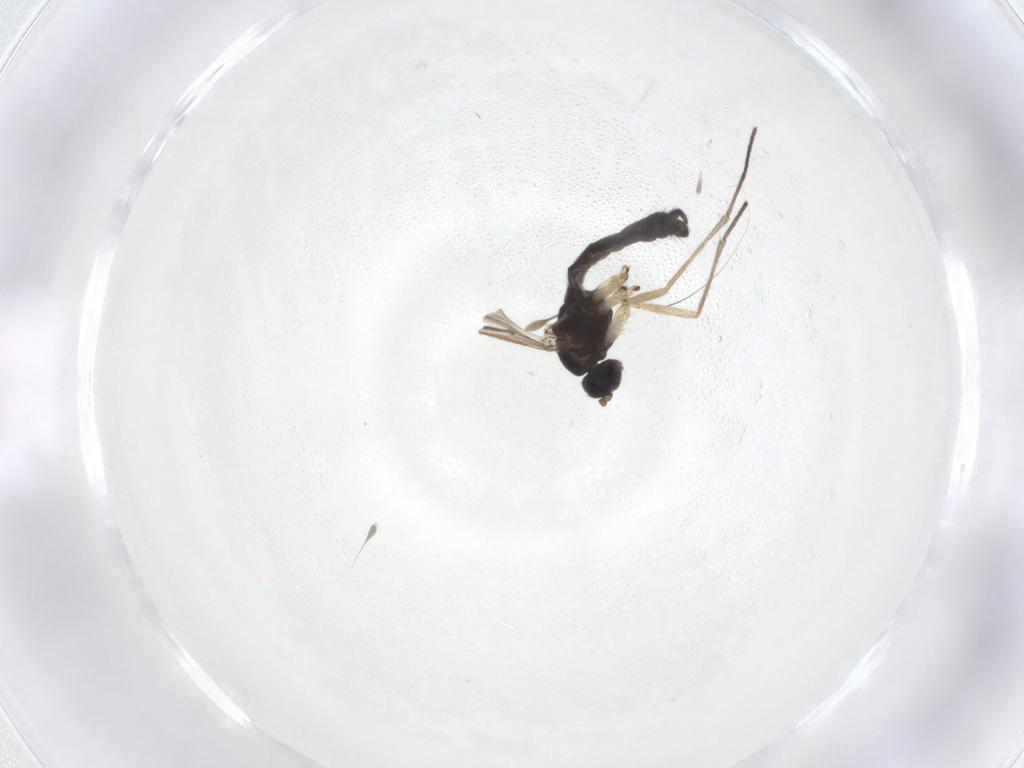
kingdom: Animalia
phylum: Arthropoda
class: Insecta
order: Diptera
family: Sciaridae
